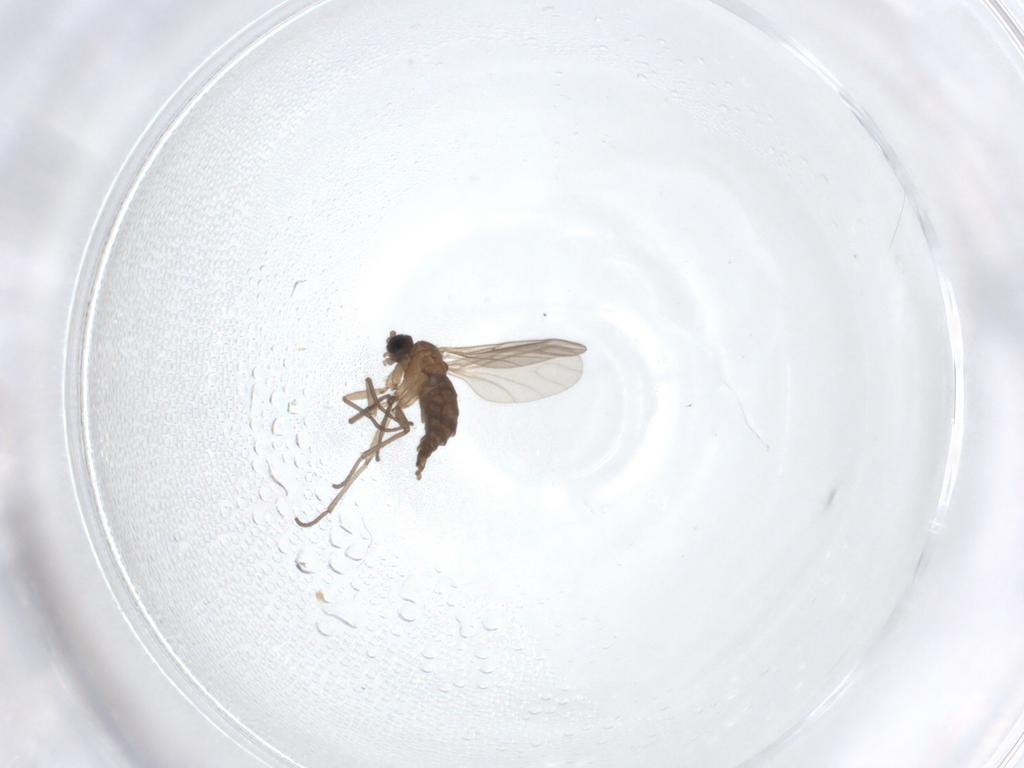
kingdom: Animalia
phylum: Arthropoda
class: Insecta
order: Diptera
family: Sciaridae
